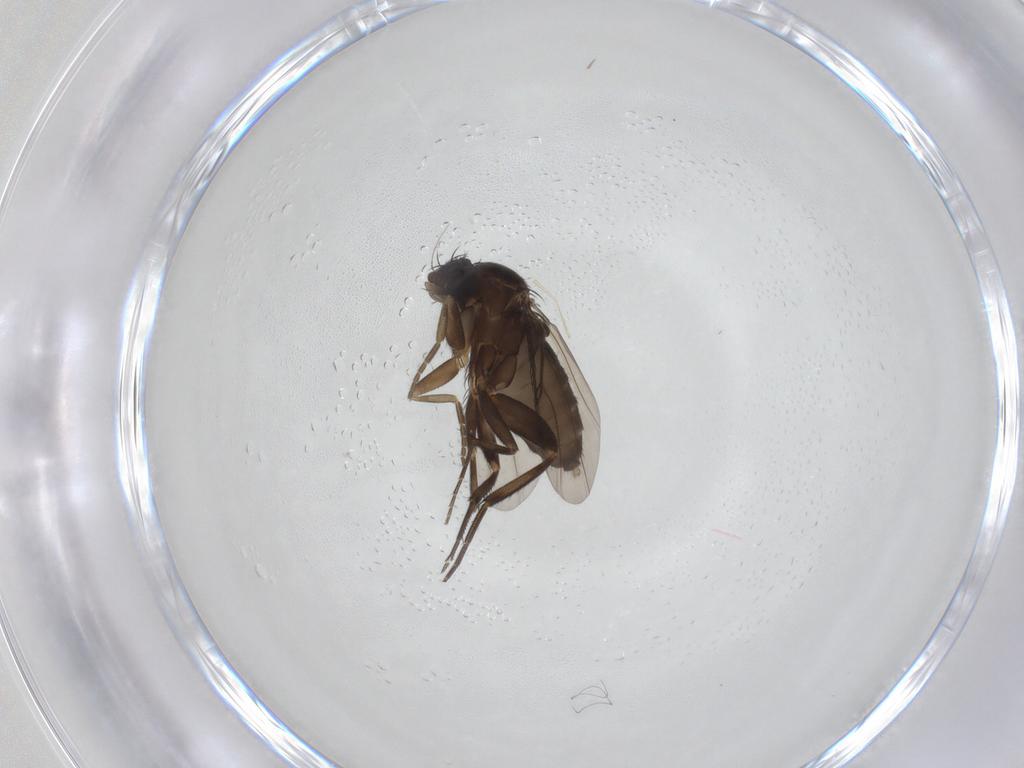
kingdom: Animalia
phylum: Arthropoda
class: Insecta
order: Diptera
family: Phoridae
